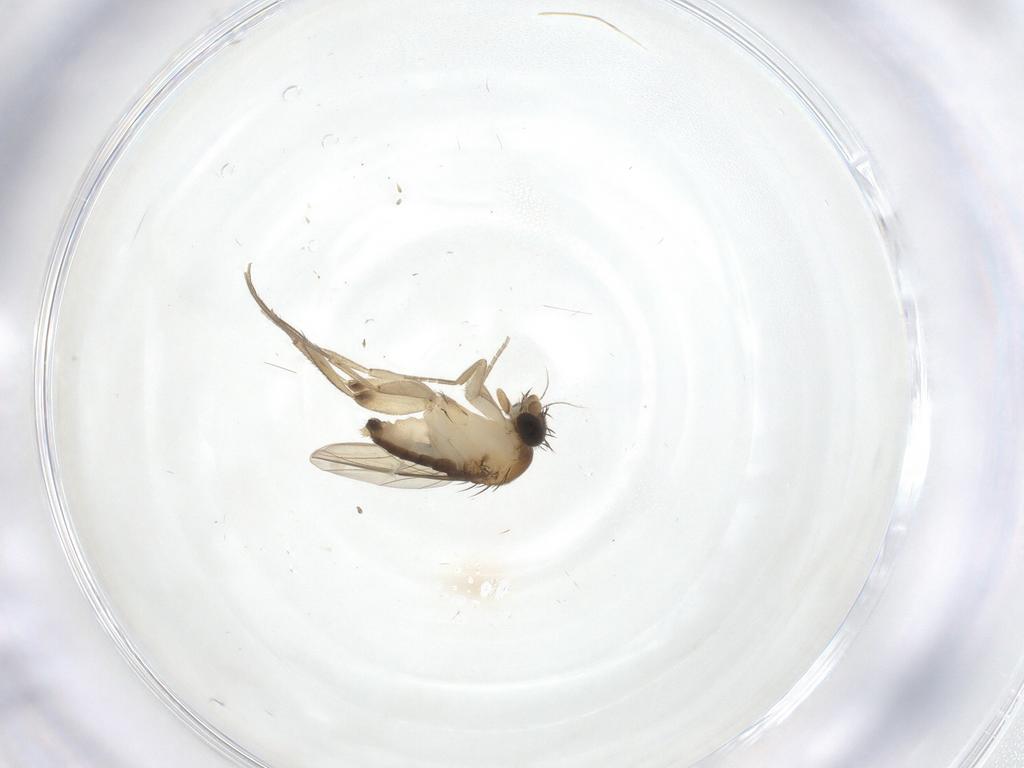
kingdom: Animalia
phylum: Arthropoda
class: Insecta
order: Diptera
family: Phoridae
